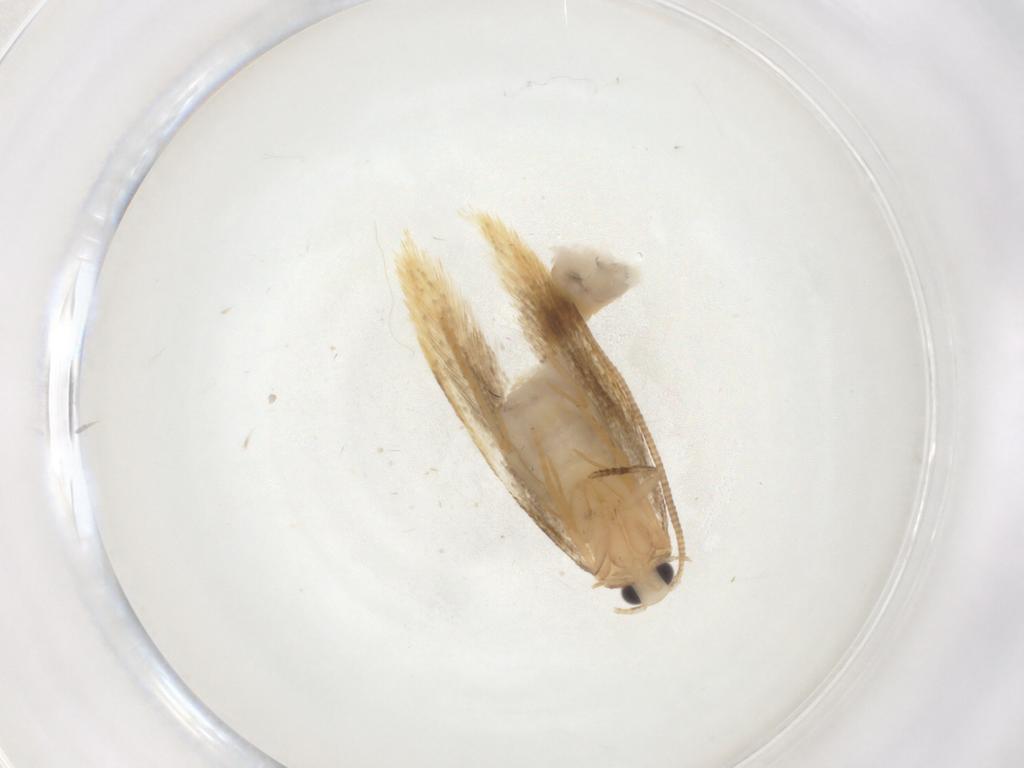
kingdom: Animalia
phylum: Arthropoda
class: Insecta
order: Lepidoptera
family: Tineidae
